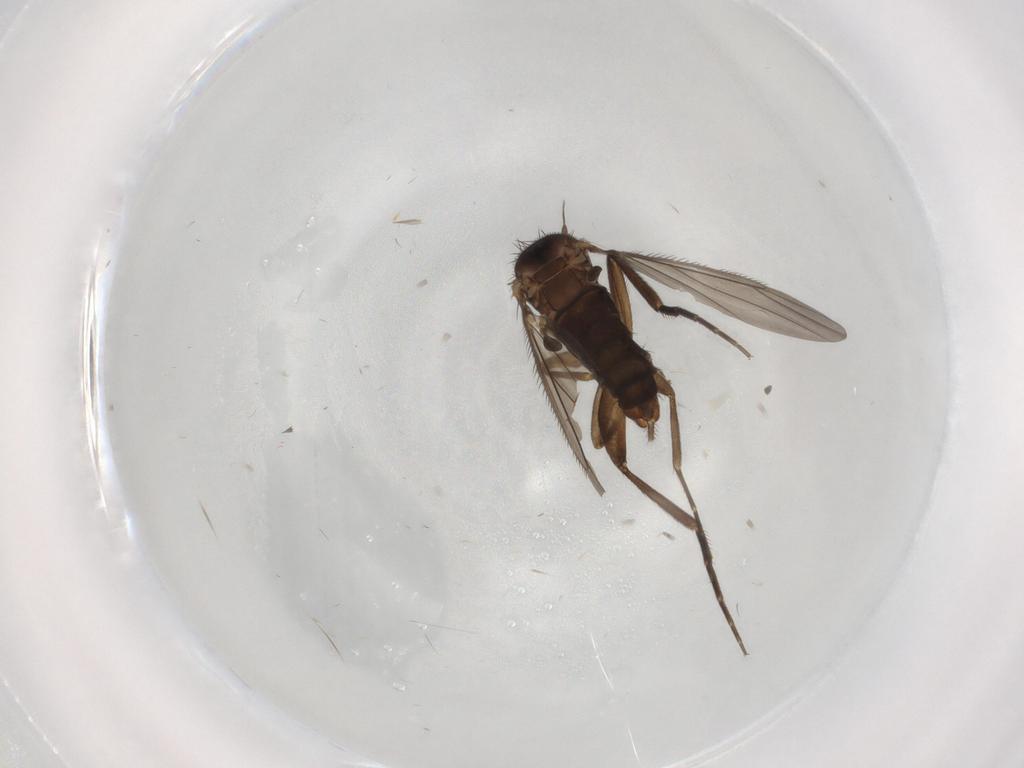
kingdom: Animalia
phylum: Arthropoda
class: Insecta
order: Diptera
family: Phoridae
